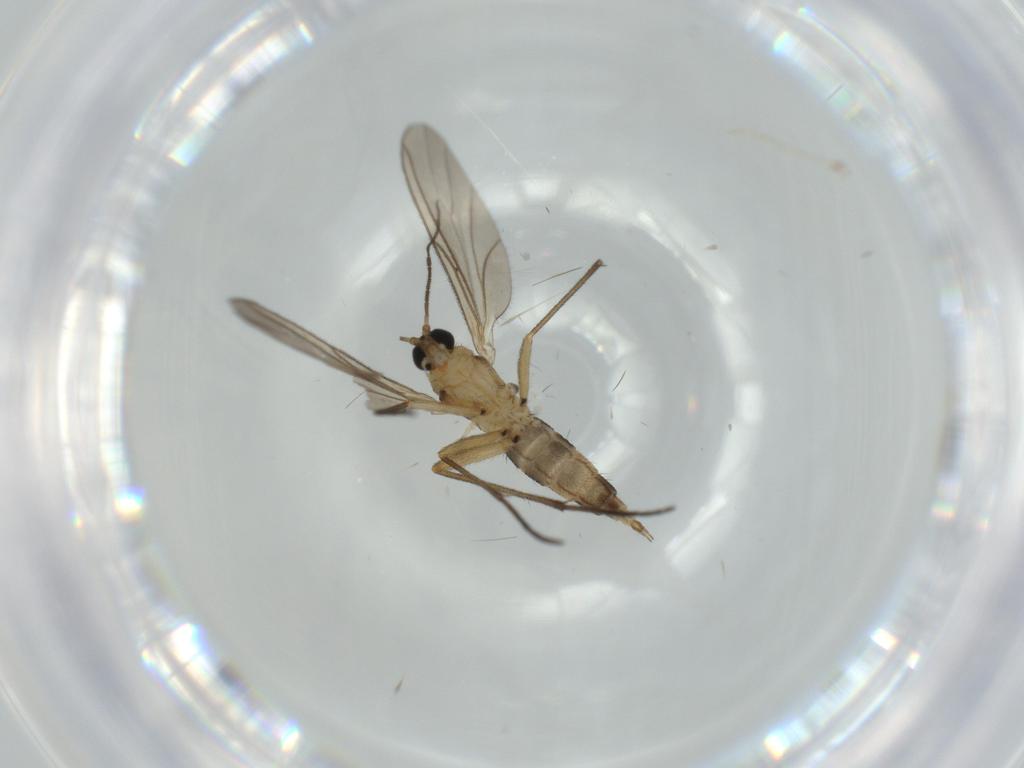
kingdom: Animalia
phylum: Arthropoda
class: Insecta
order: Diptera
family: Sciaridae
